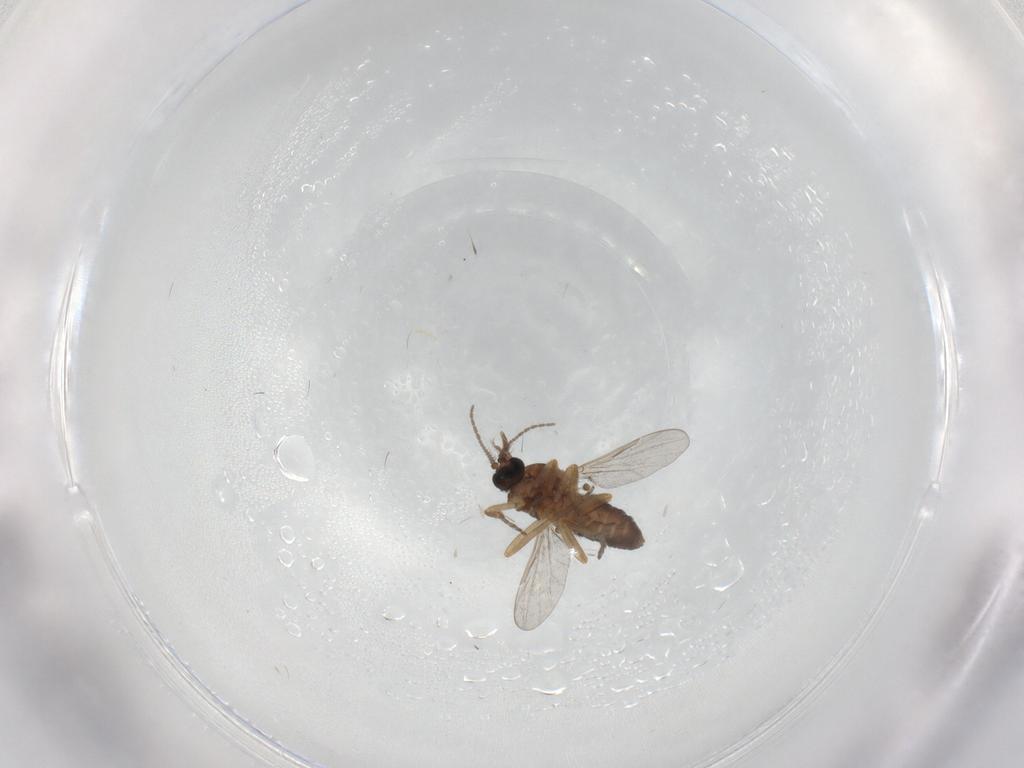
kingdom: Animalia
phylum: Arthropoda
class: Insecta
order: Diptera
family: Ceratopogonidae
